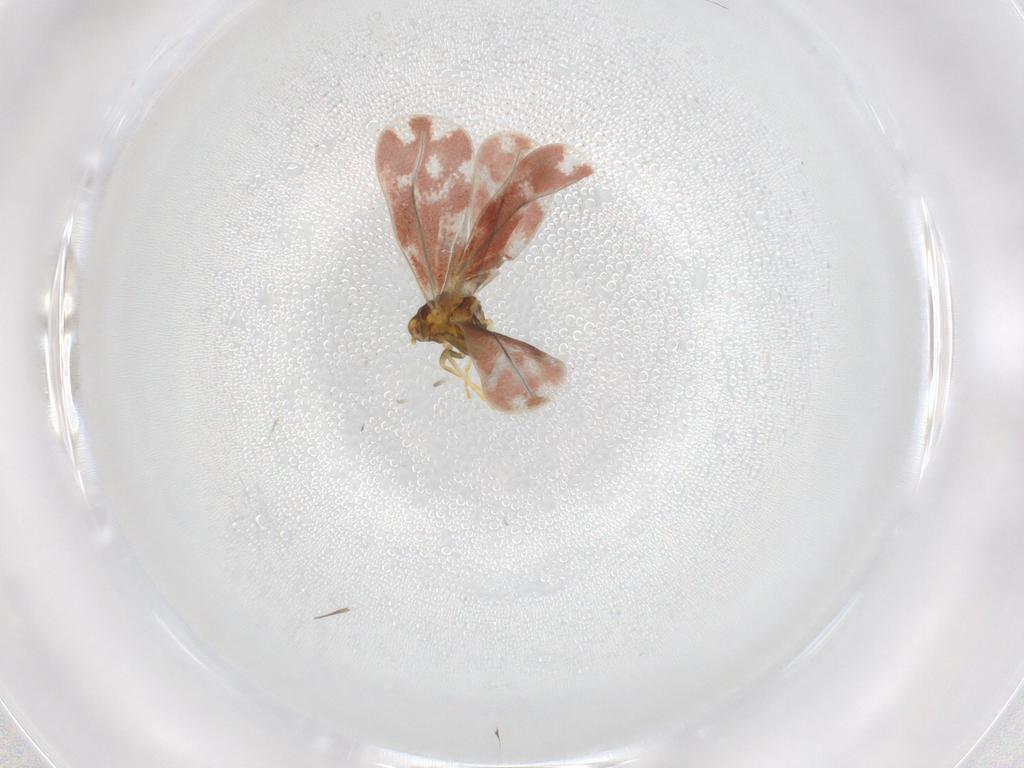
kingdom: Animalia
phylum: Arthropoda
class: Insecta
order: Hemiptera
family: Aleyrodidae
